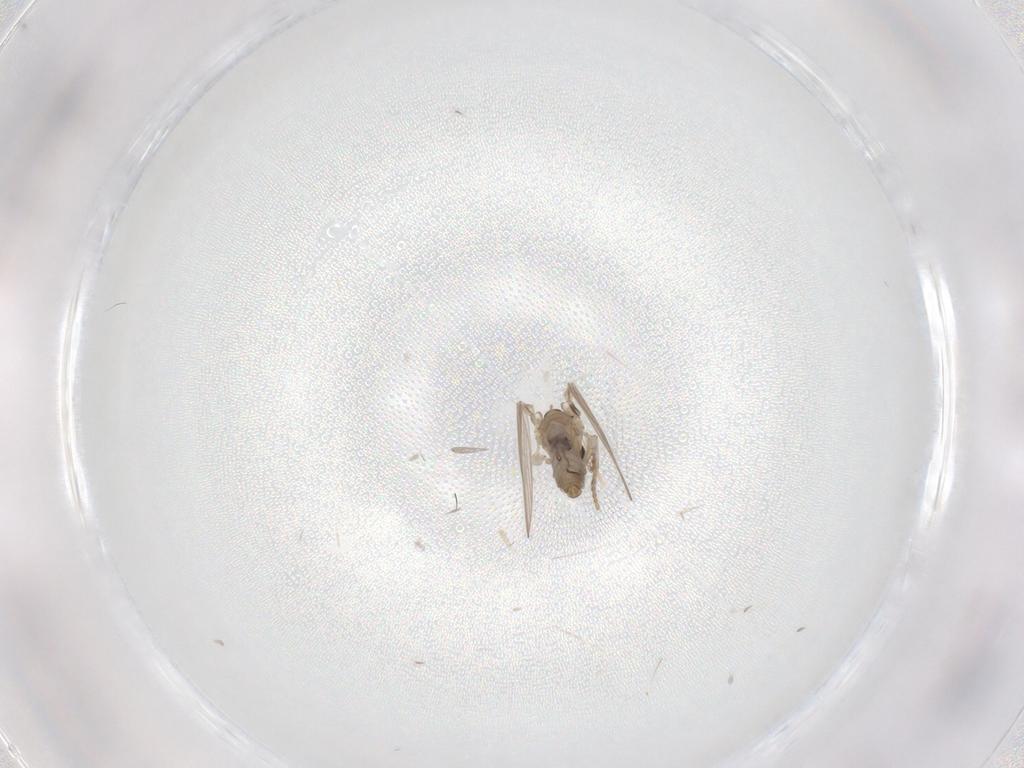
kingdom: Animalia
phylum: Arthropoda
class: Insecta
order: Diptera
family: Psychodidae
